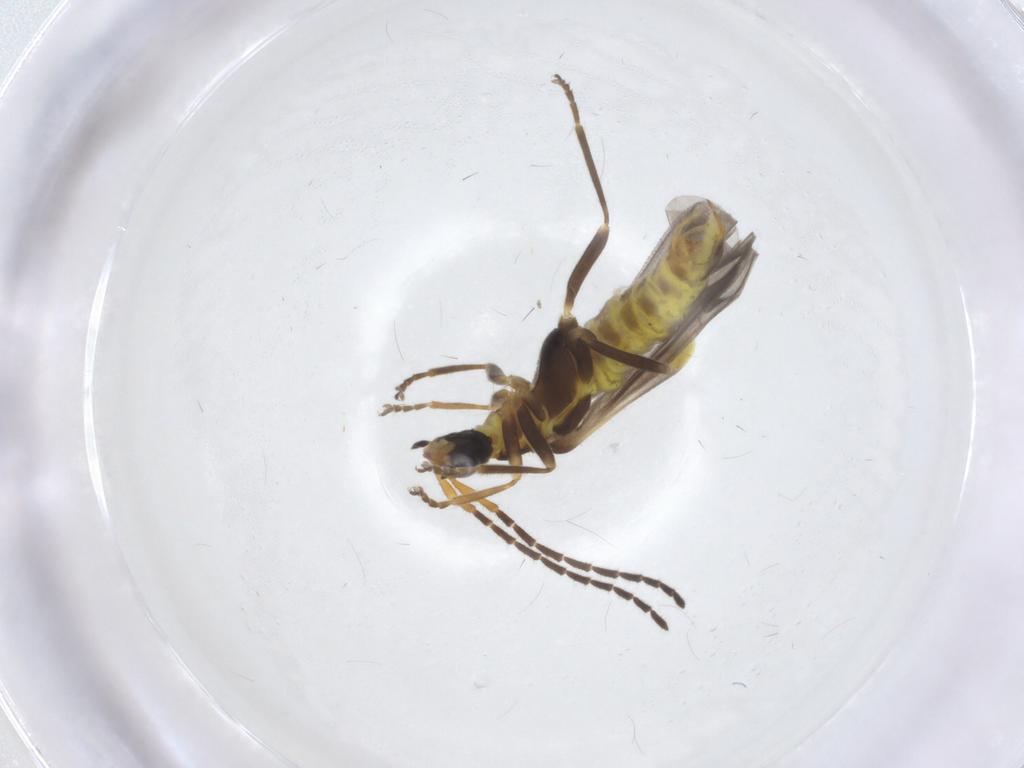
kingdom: Animalia
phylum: Arthropoda
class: Insecta
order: Coleoptera
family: Cantharidae
